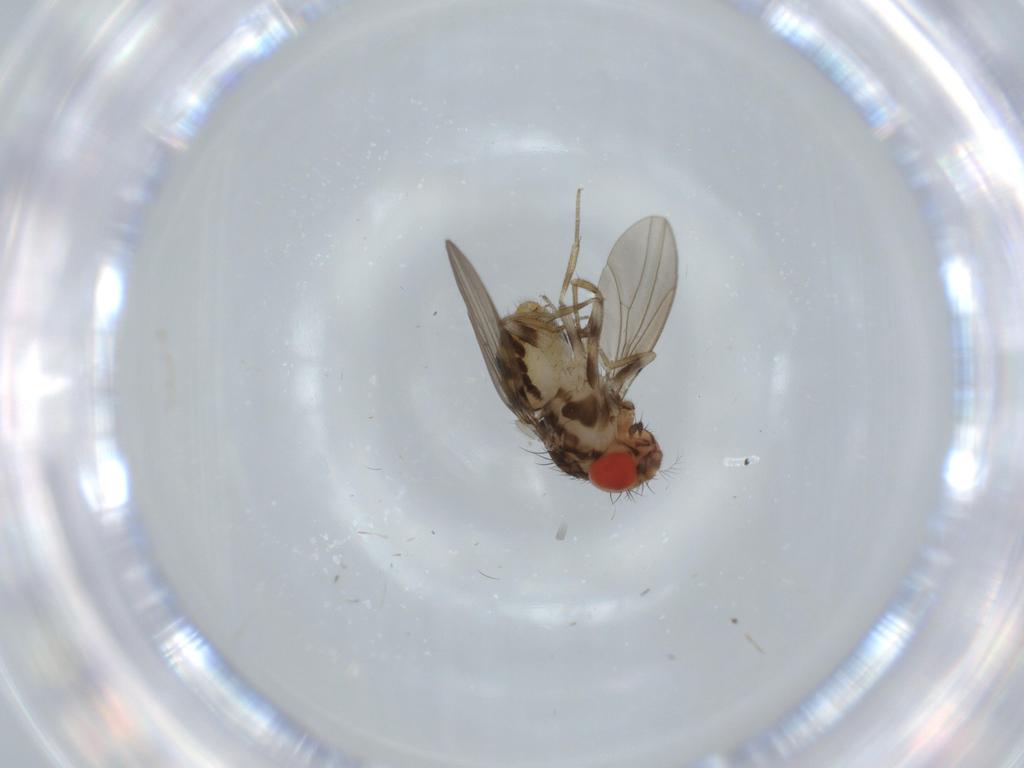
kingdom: Animalia
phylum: Arthropoda
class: Insecta
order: Diptera
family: Drosophilidae
